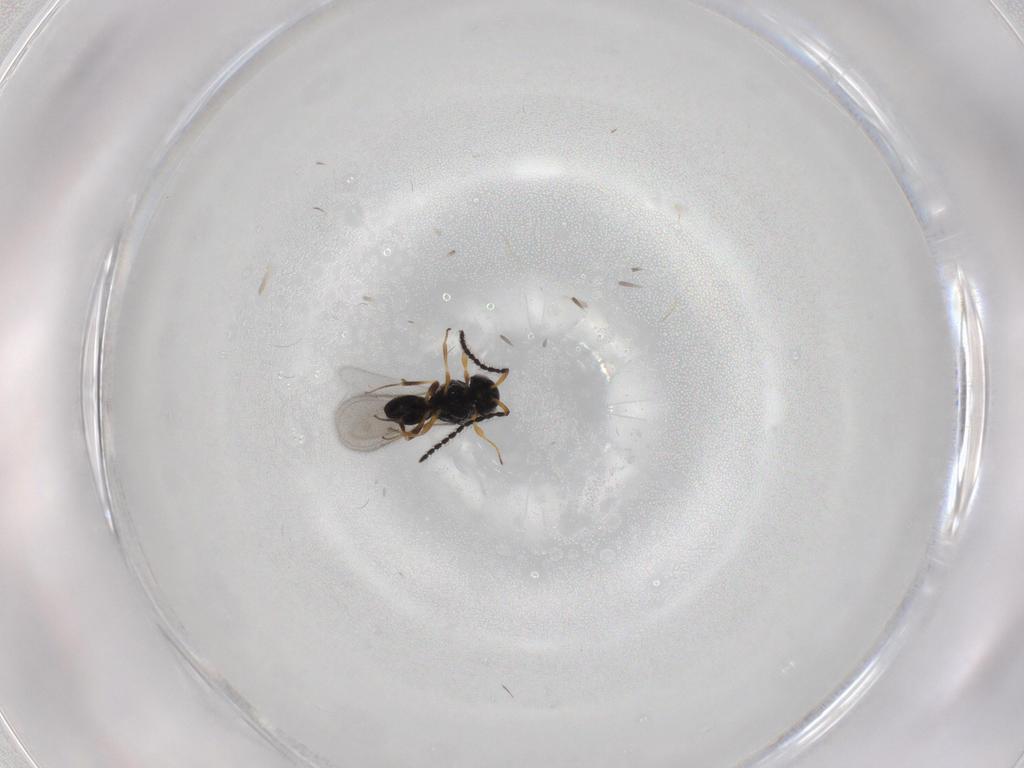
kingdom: Animalia
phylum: Arthropoda
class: Insecta
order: Hymenoptera
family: Scelionidae
